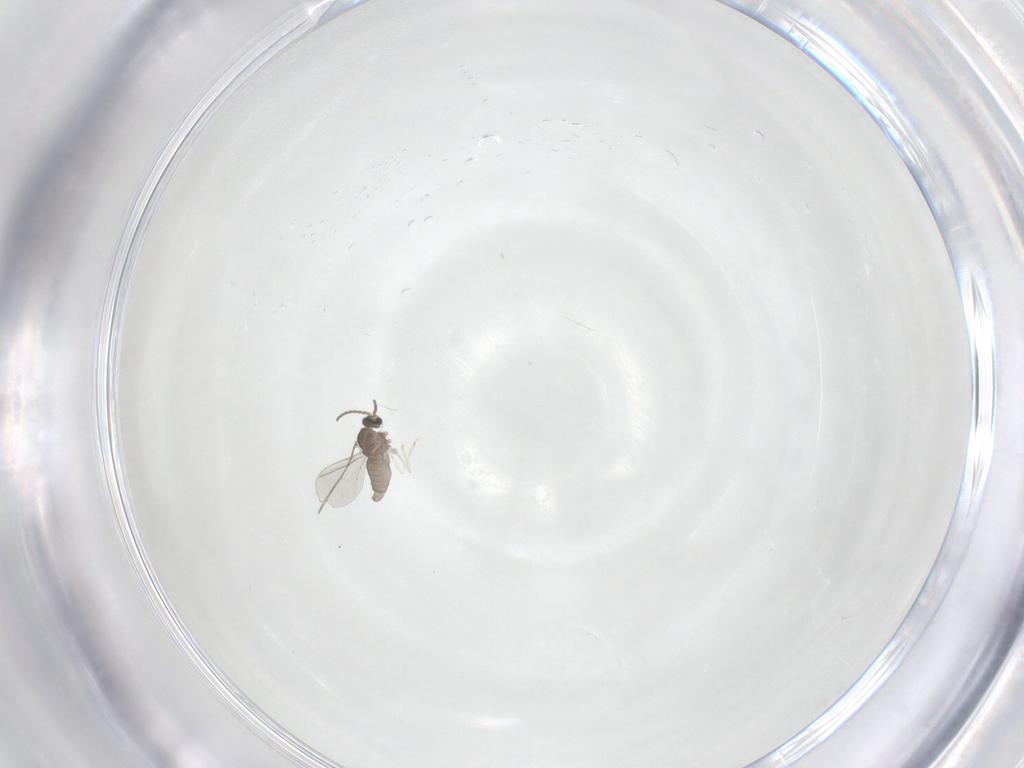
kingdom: Animalia
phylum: Arthropoda
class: Insecta
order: Diptera
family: Cecidomyiidae
